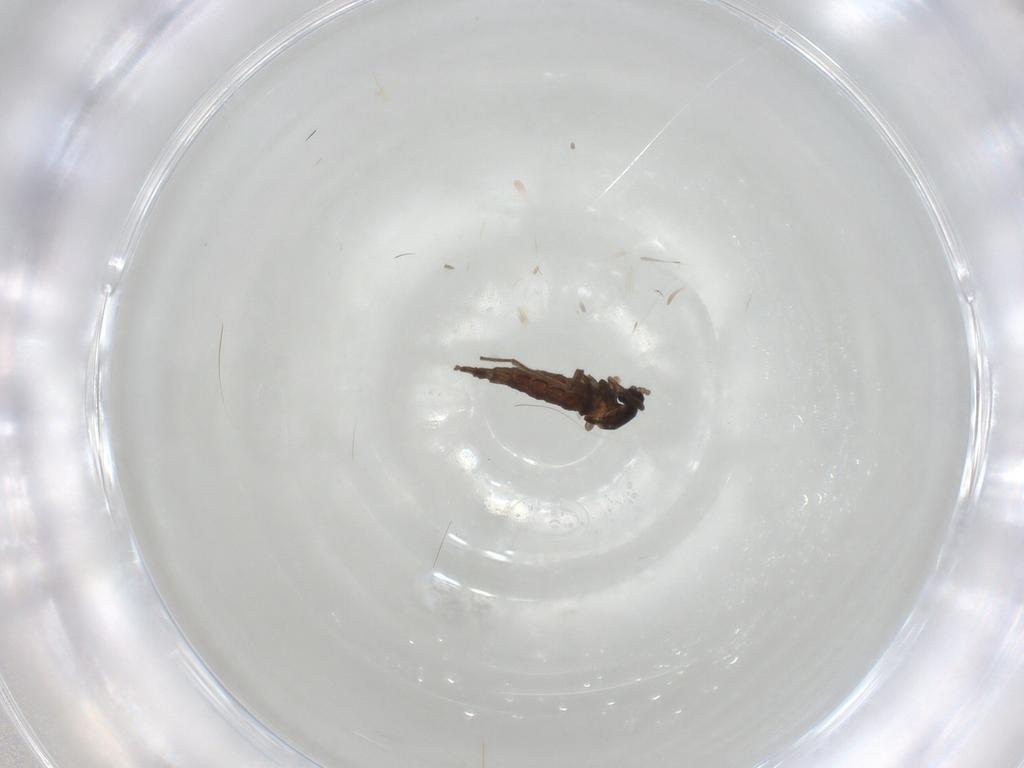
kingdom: Animalia
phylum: Arthropoda
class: Insecta
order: Diptera
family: Cecidomyiidae
